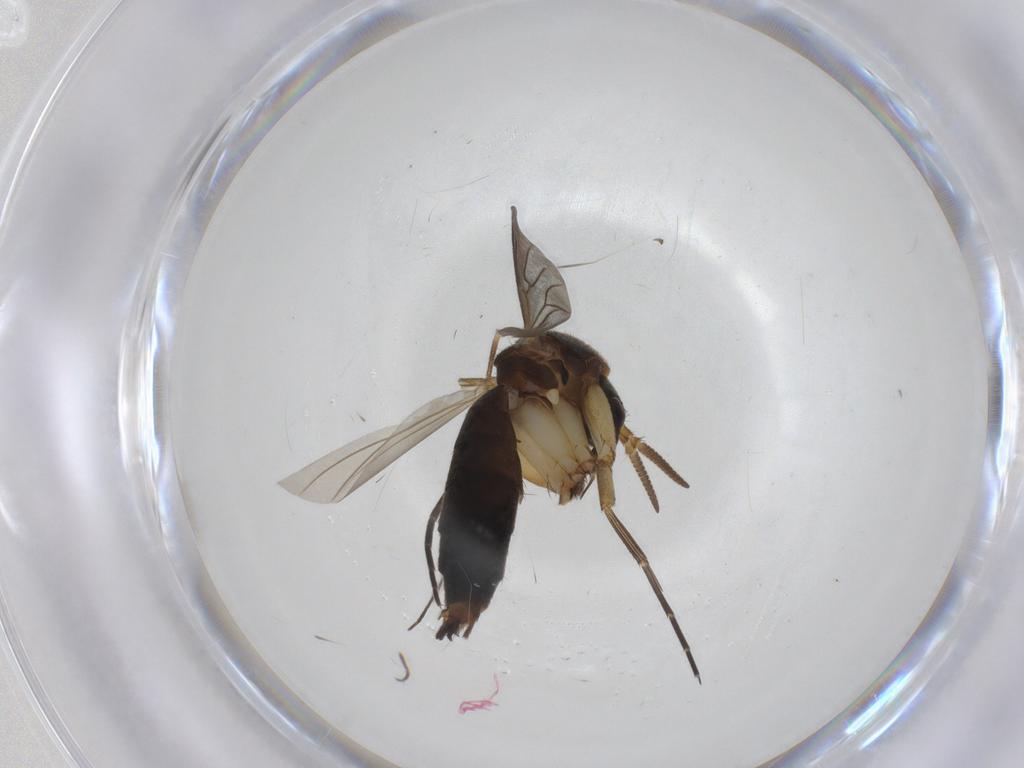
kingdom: Animalia
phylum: Arthropoda
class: Insecta
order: Diptera
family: Mycetophilidae
